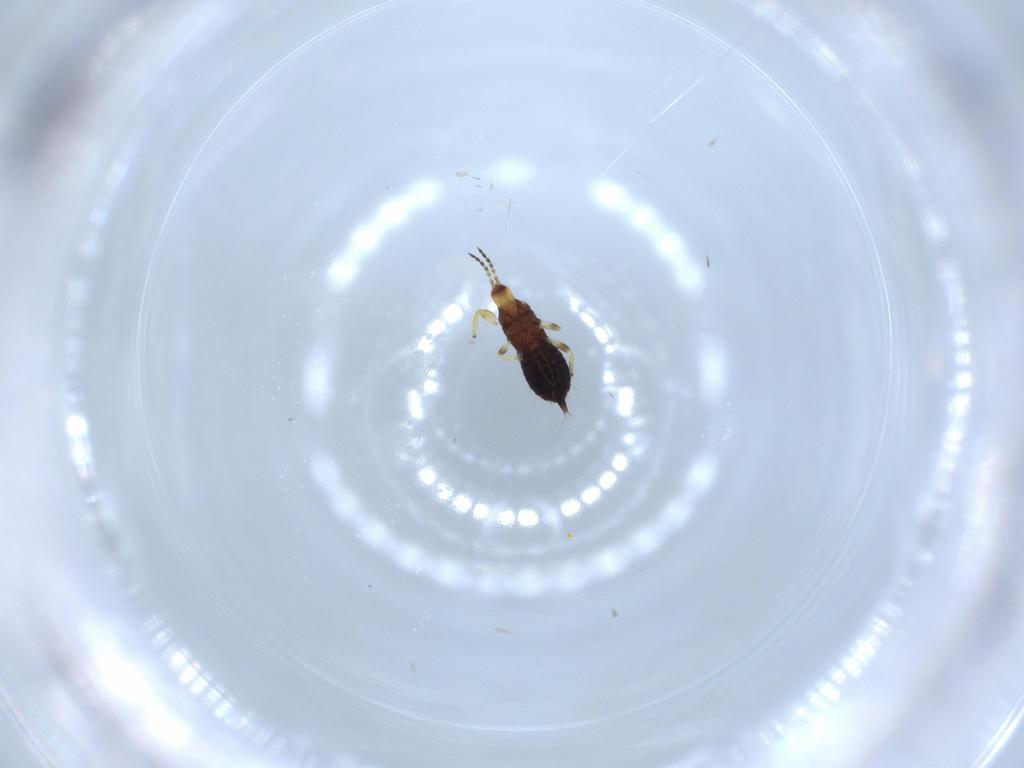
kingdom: Animalia
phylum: Arthropoda
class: Insecta
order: Thysanoptera
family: Phlaeothripidae
